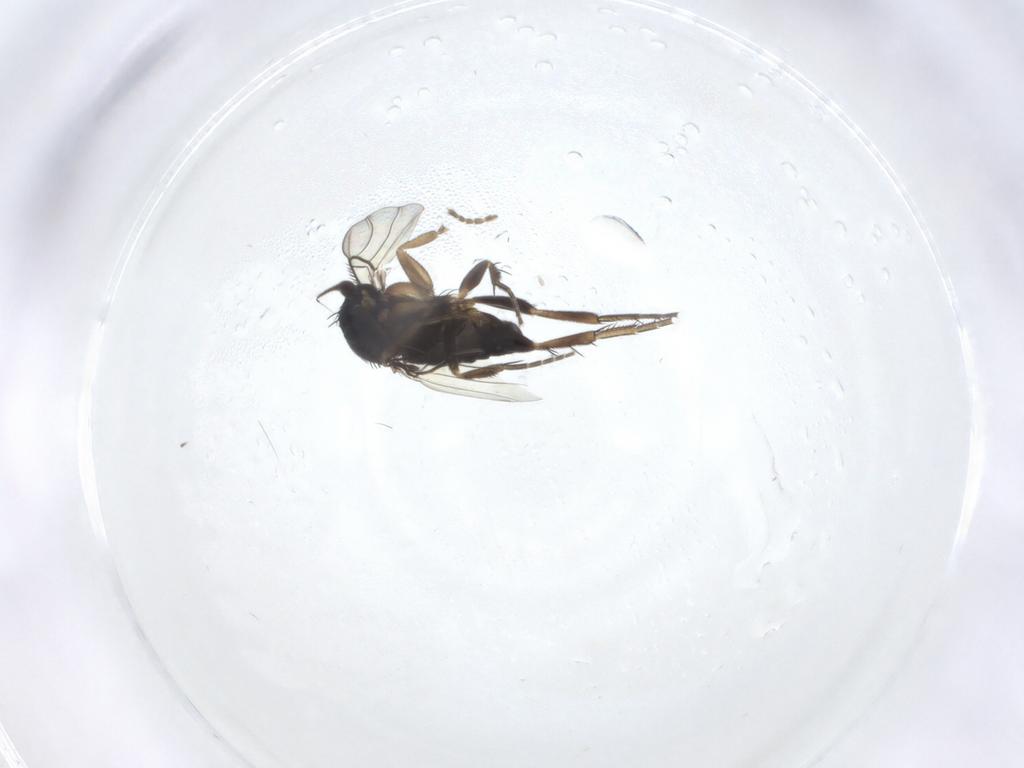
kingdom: Animalia
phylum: Arthropoda
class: Insecta
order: Diptera
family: Phoridae
